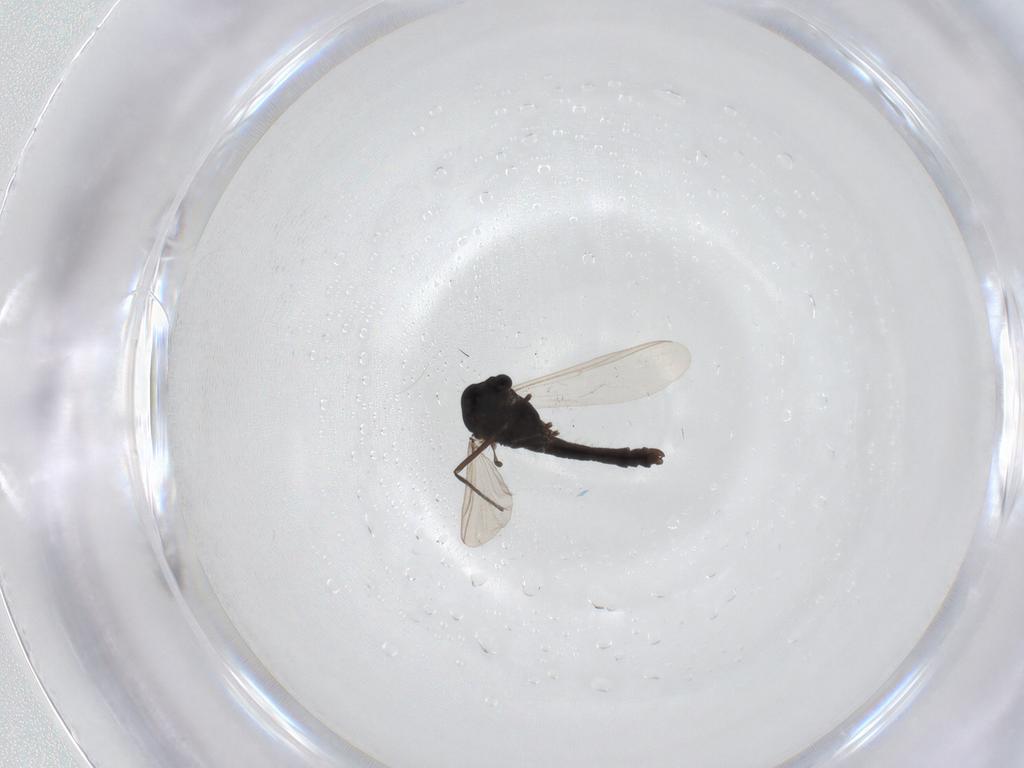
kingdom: Animalia
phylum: Arthropoda
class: Insecta
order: Diptera
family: Chironomidae
